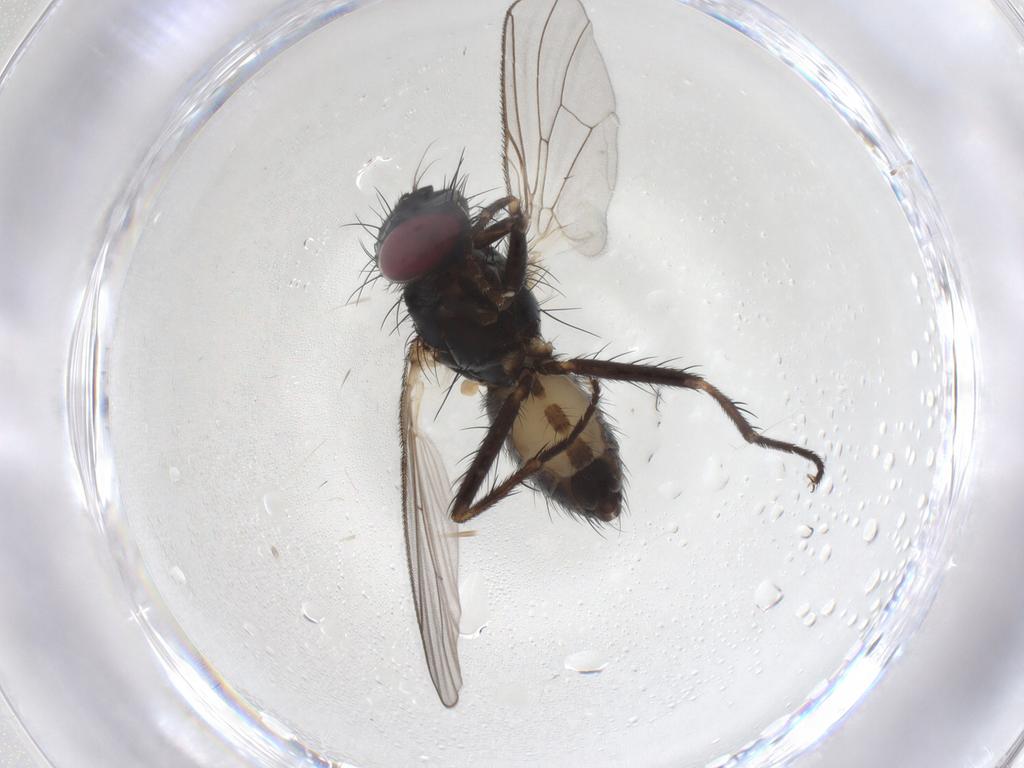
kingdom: Animalia
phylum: Arthropoda
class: Insecta
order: Diptera
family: Muscidae
